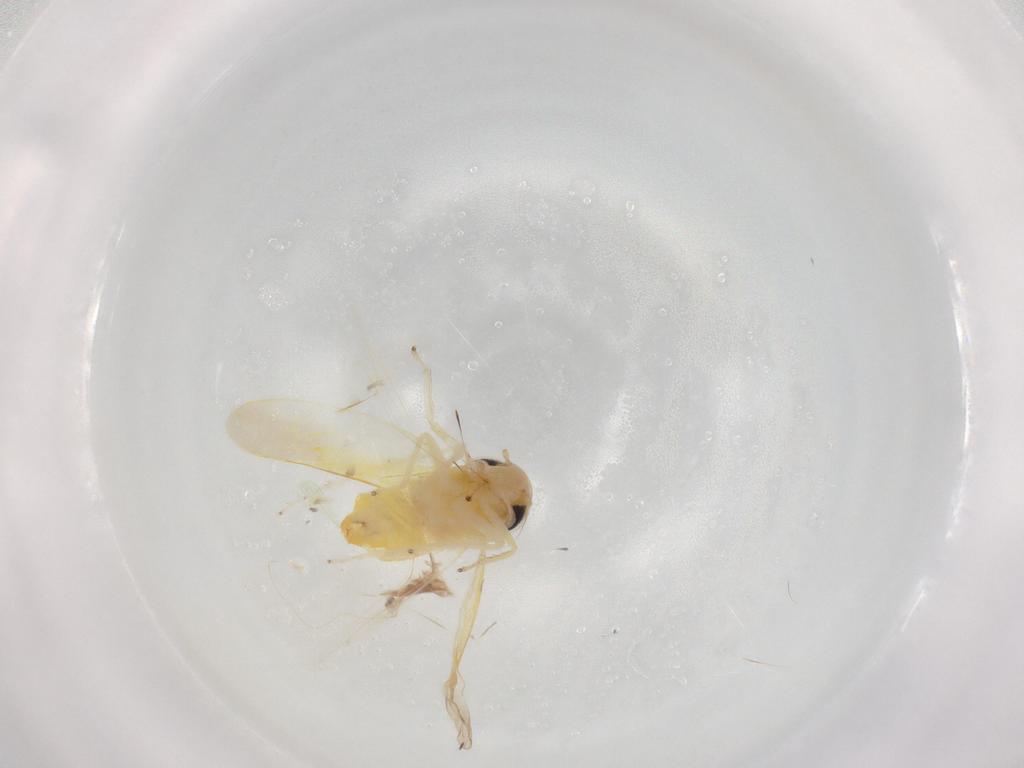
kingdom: Animalia
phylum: Arthropoda
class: Insecta
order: Hemiptera
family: Cicadellidae
